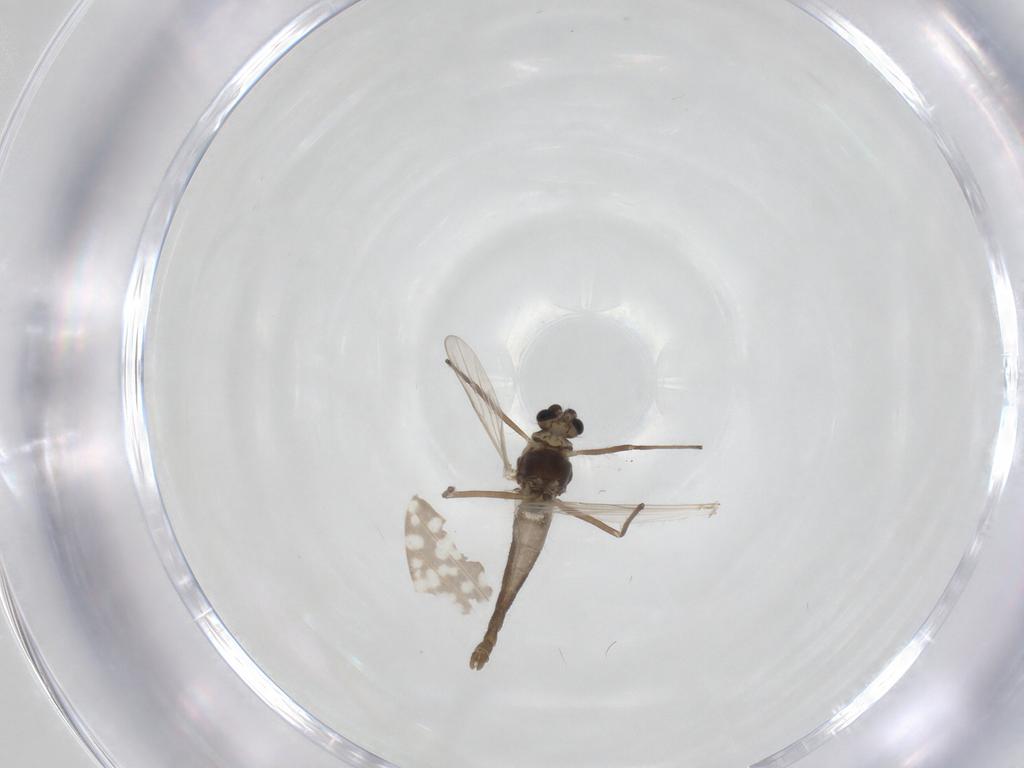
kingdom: Animalia
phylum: Arthropoda
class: Insecta
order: Diptera
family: Chironomidae
